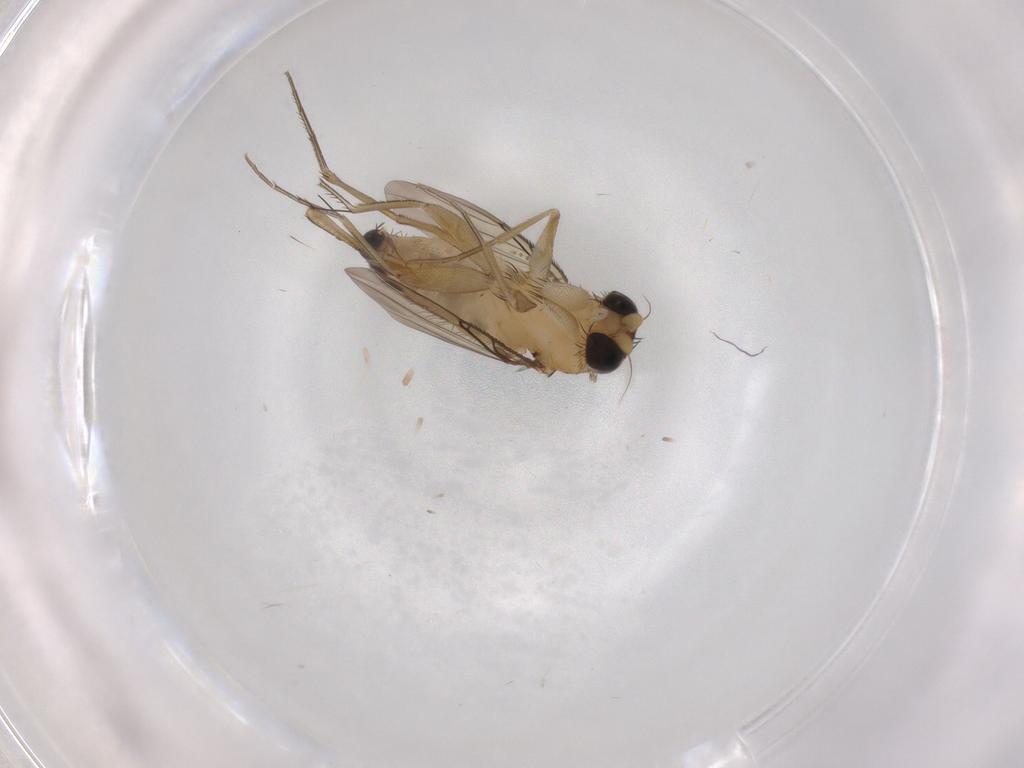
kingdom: Animalia
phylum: Arthropoda
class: Insecta
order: Diptera
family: Phoridae
